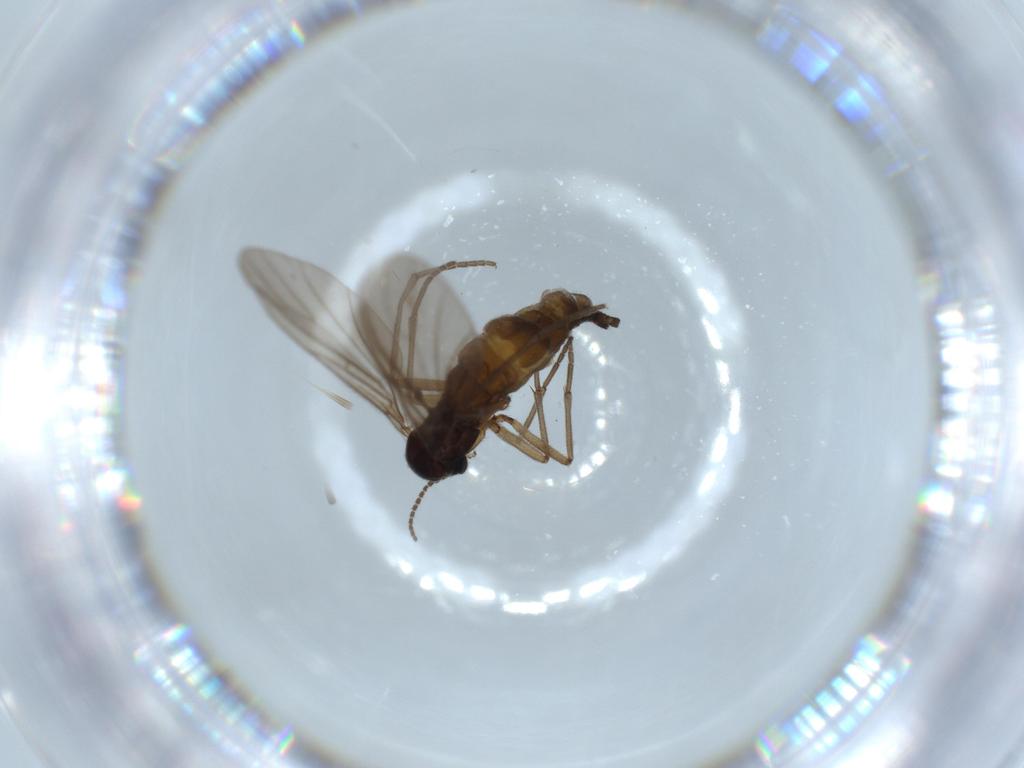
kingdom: Animalia
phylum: Arthropoda
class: Insecta
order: Diptera
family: Sciaridae
